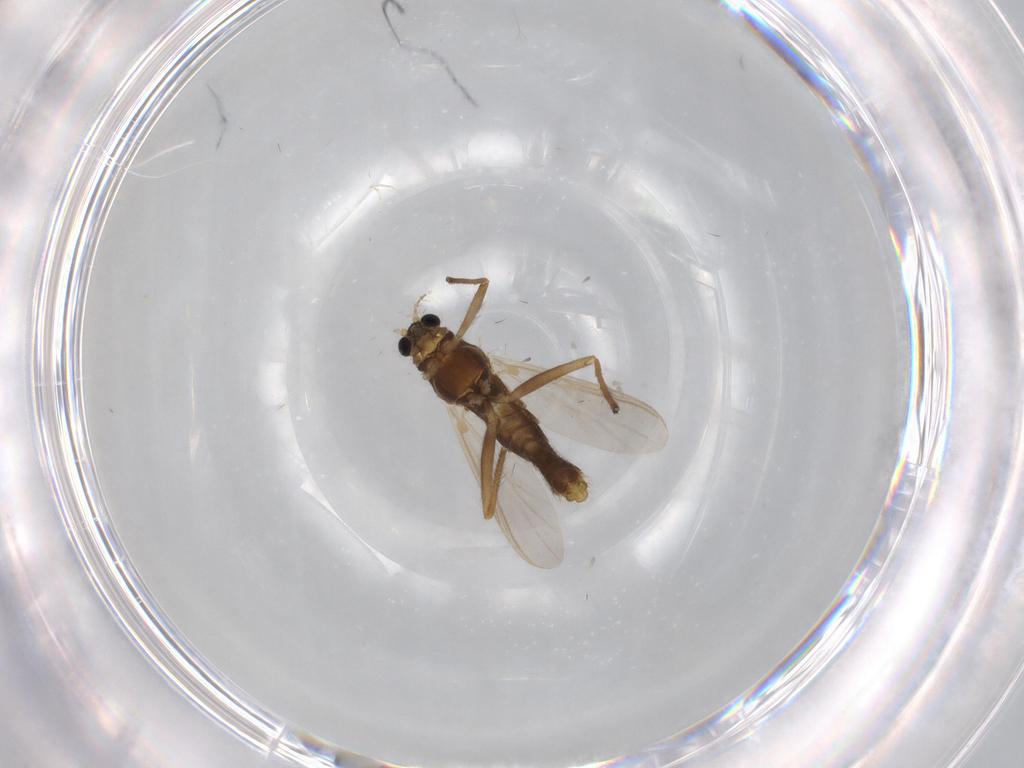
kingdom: Animalia
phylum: Arthropoda
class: Insecta
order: Diptera
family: Chironomidae
